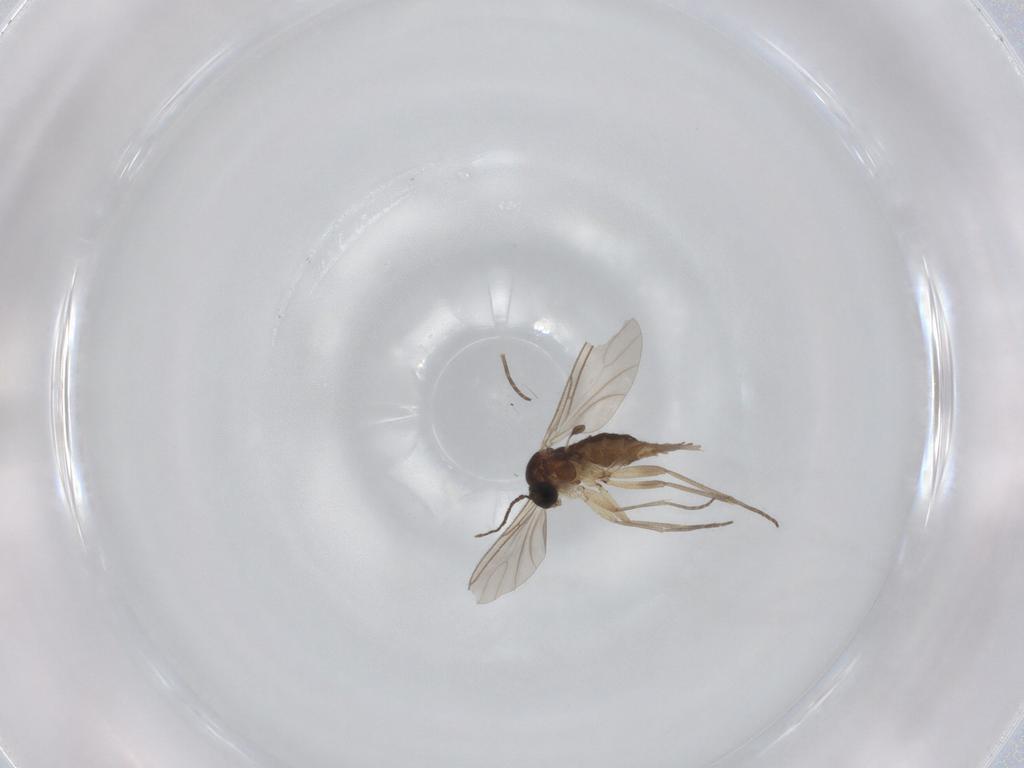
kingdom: Animalia
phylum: Arthropoda
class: Insecta
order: Diptera
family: Sciaridae
